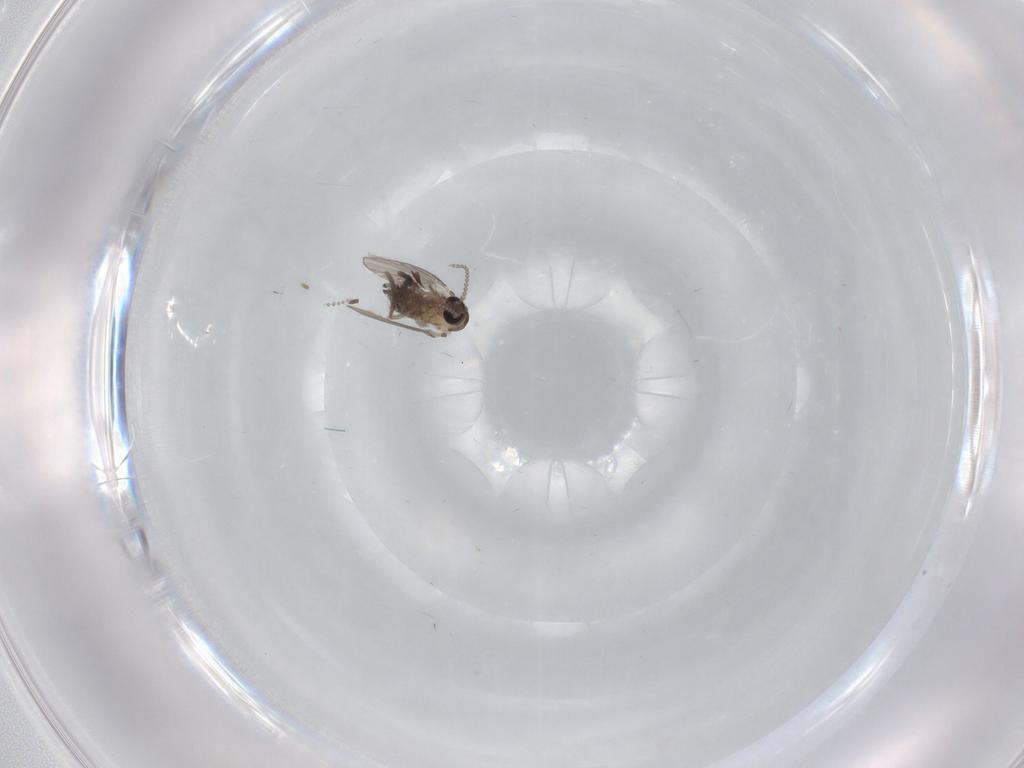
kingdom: Animalia
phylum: Arthropoda
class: Insecta
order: Diptera
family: Psychodidae
